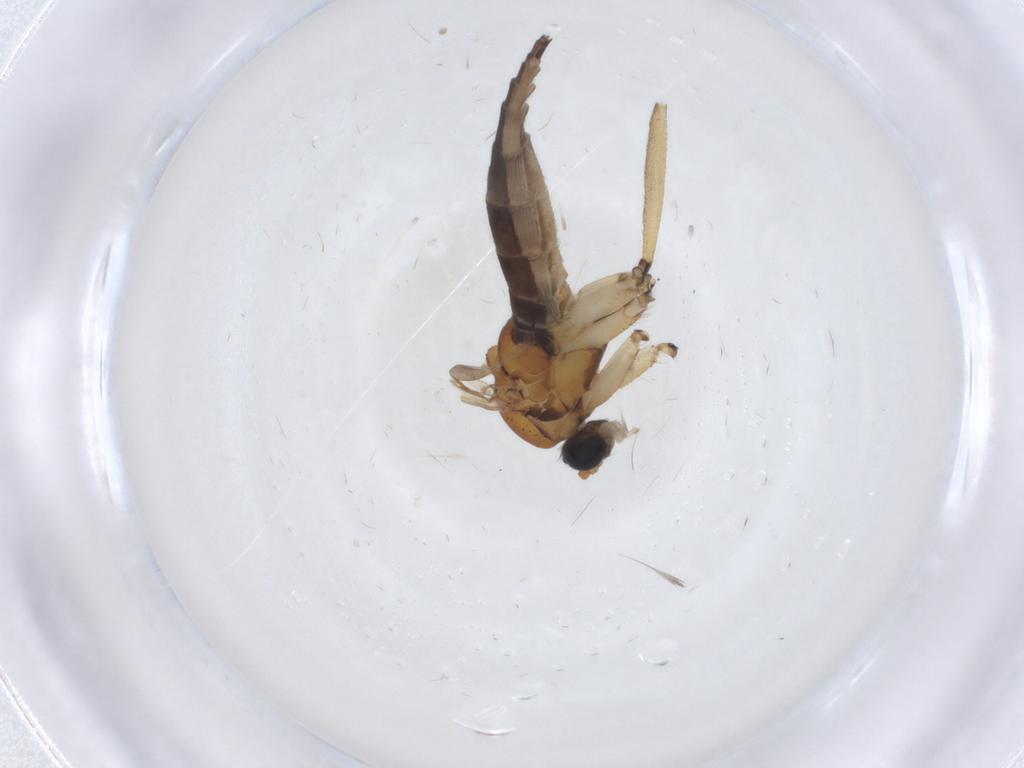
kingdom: Animalia
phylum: Arthropoda
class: Insecta
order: Diptera
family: Sciaridae
